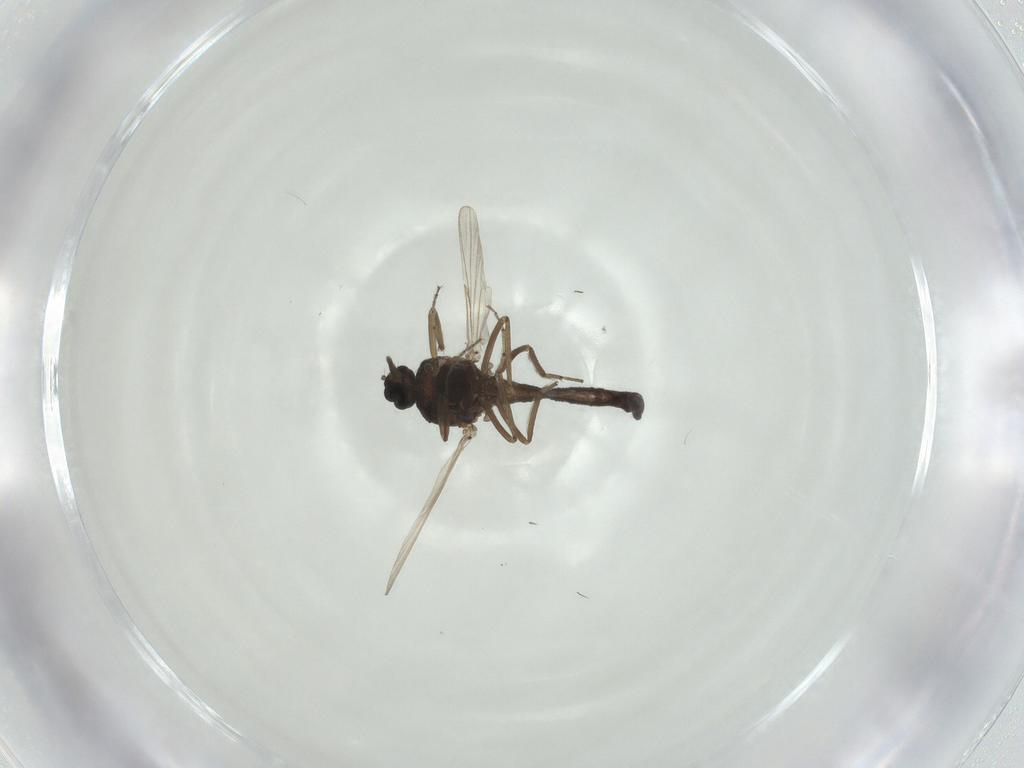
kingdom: Animalia
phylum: Arthropoda
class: Insecta
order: Diptera
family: Ceratopogonidae
